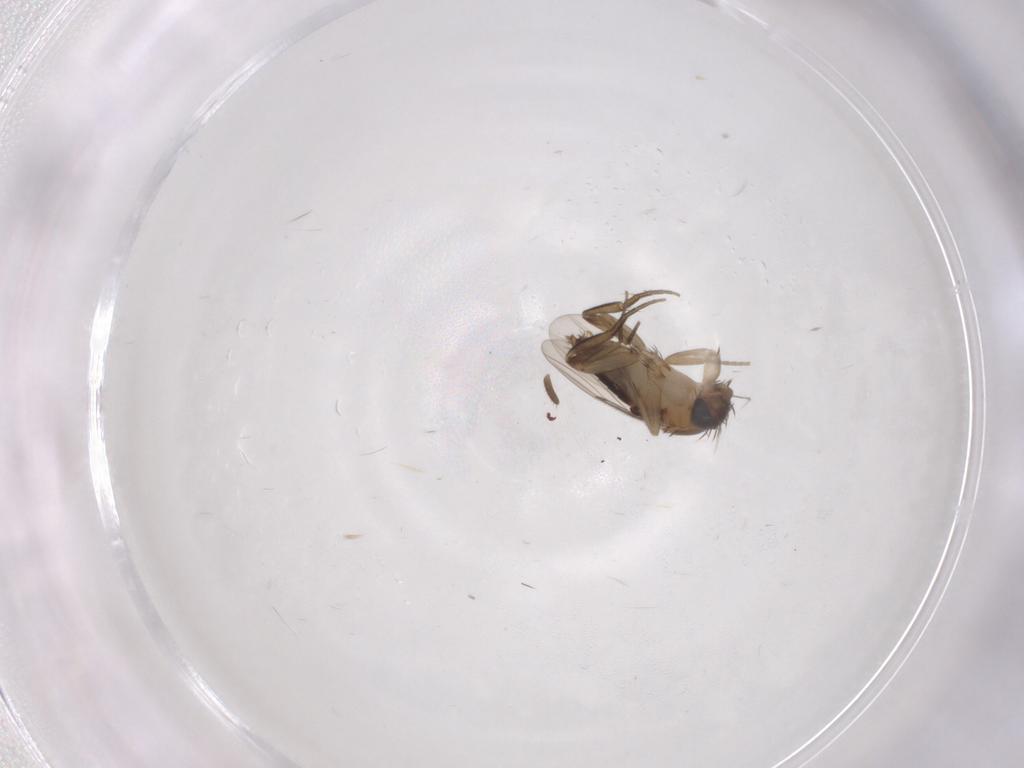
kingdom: Animalia
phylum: Arthropoda
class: Insecta
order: Diptera
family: Phoridae
